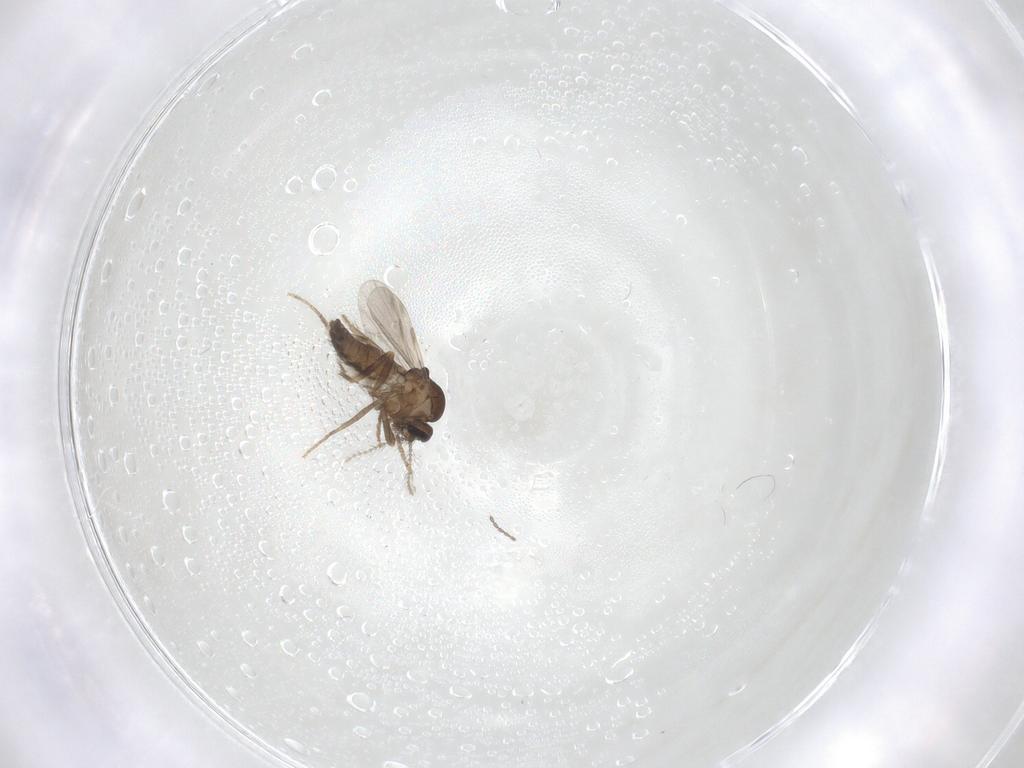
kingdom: Animalia
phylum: Arthropoda
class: Insecta
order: Diptera
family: Ceratopogonidae
